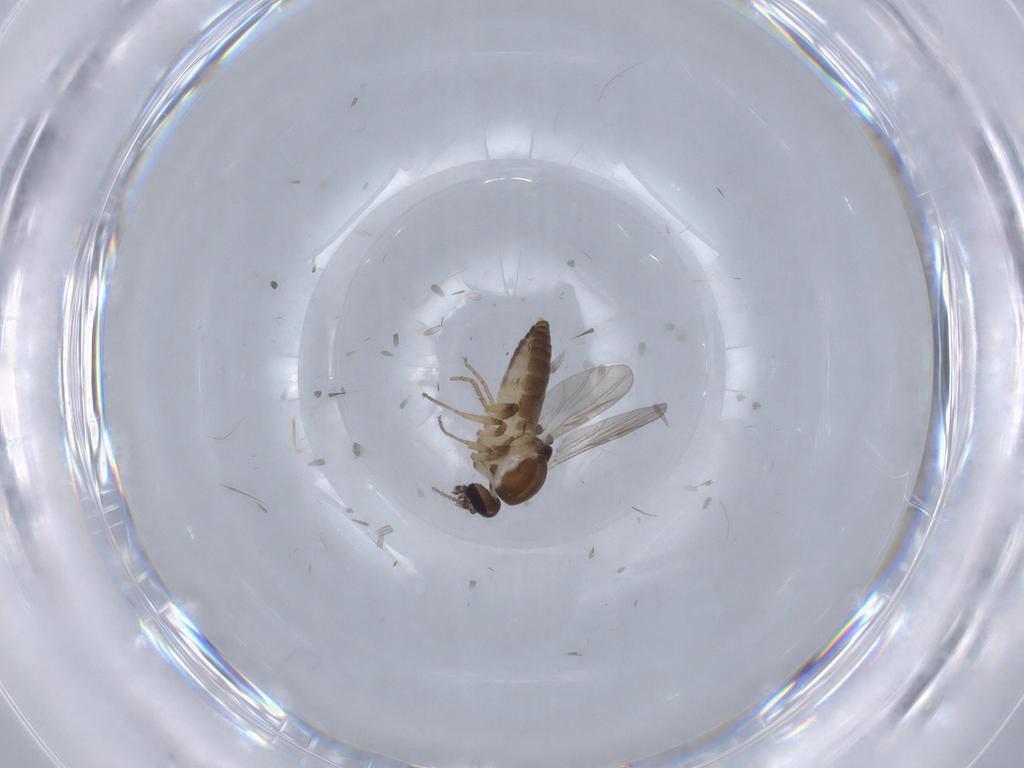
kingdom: Animalia
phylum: Arthropoda
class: Insecta
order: Diptera
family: Ceratopogonidae
